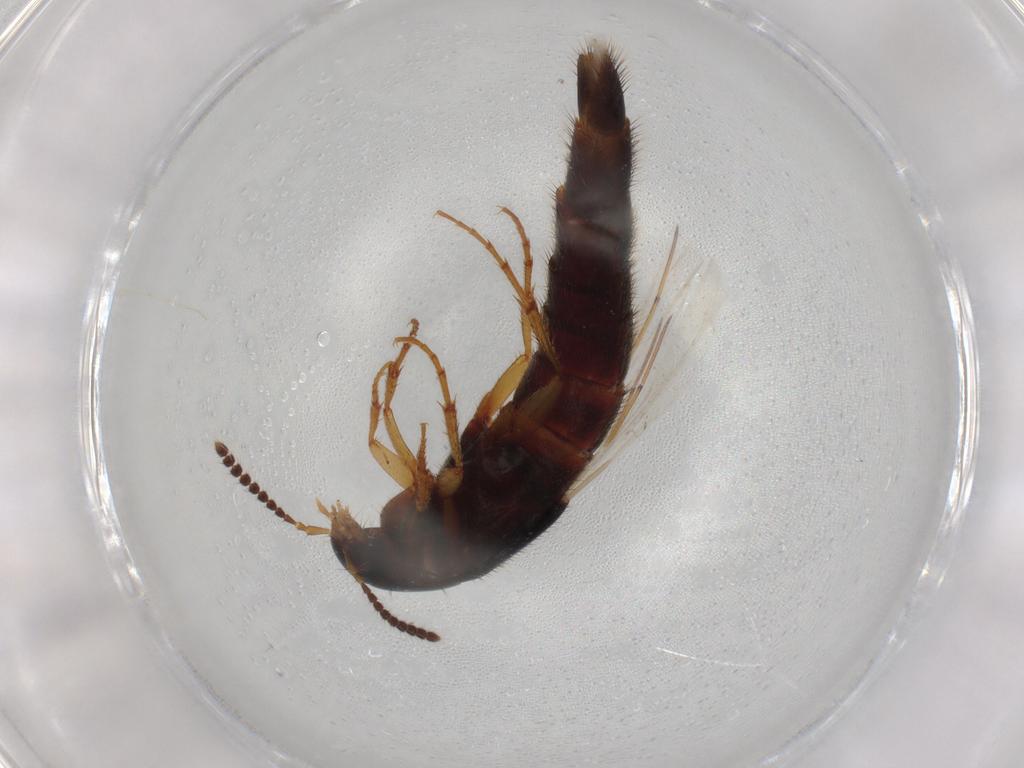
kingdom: Animalia
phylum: Arthropoda
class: Insecta
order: Coleoptera
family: Staphylinidae
